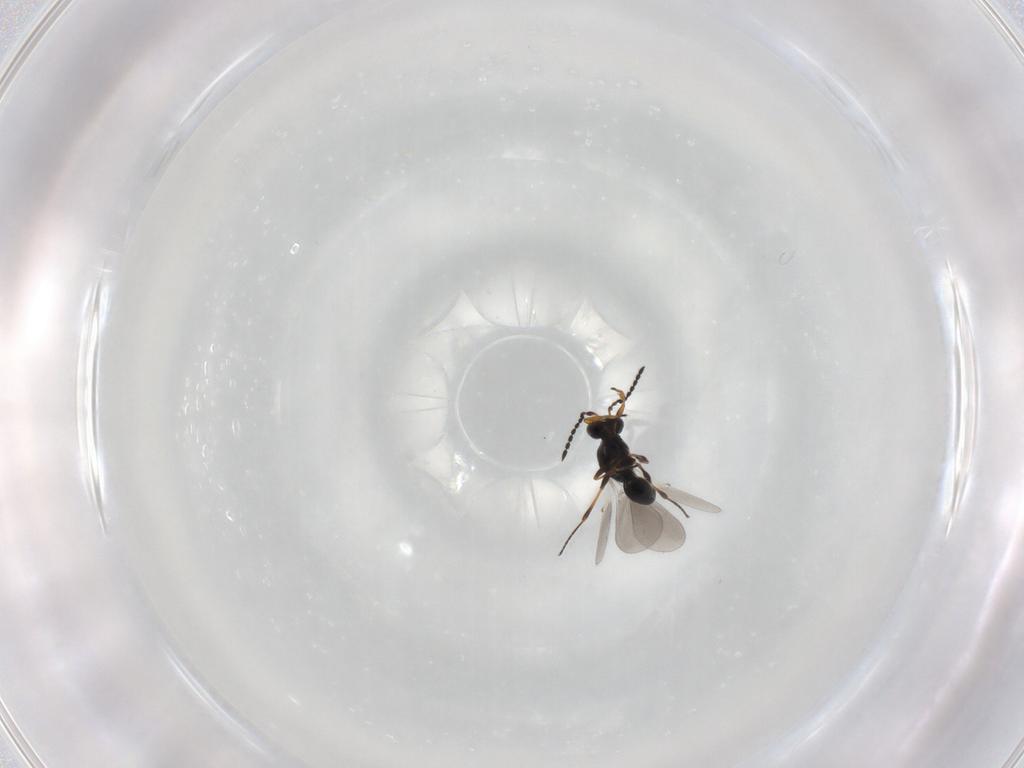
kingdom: Animalia
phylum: Arthropoda
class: Insecta
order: Hymenoptera
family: Platygastridae
